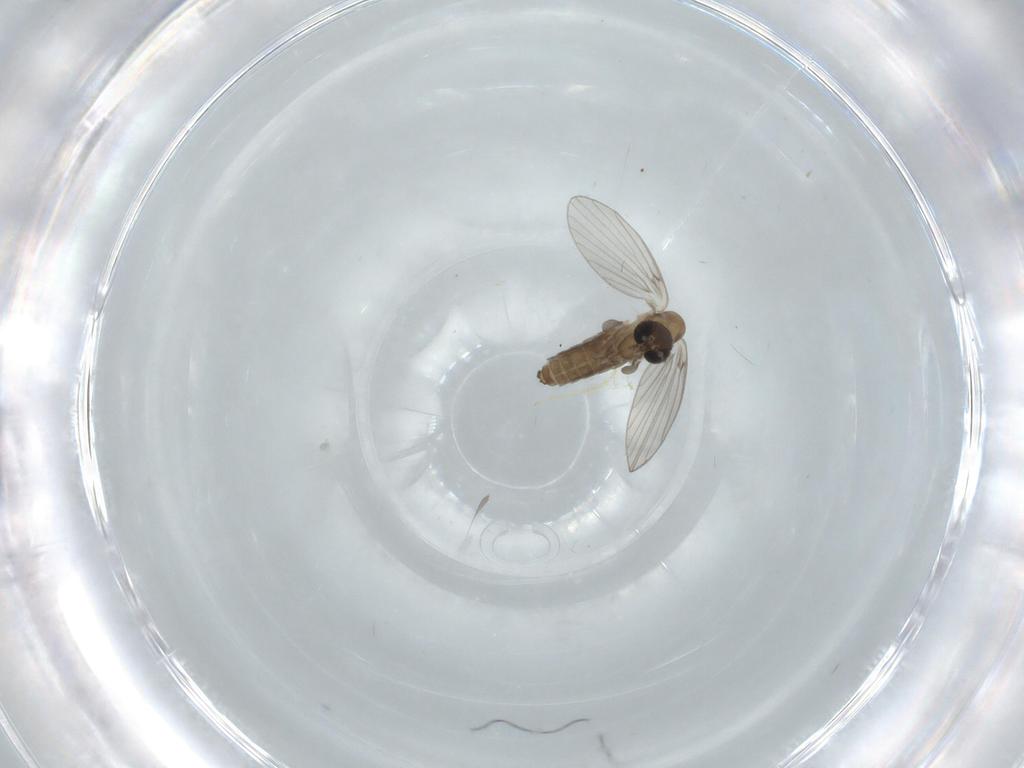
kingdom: Animalia
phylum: Arthropoda
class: Insecta
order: Diptera
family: Psychodidae
